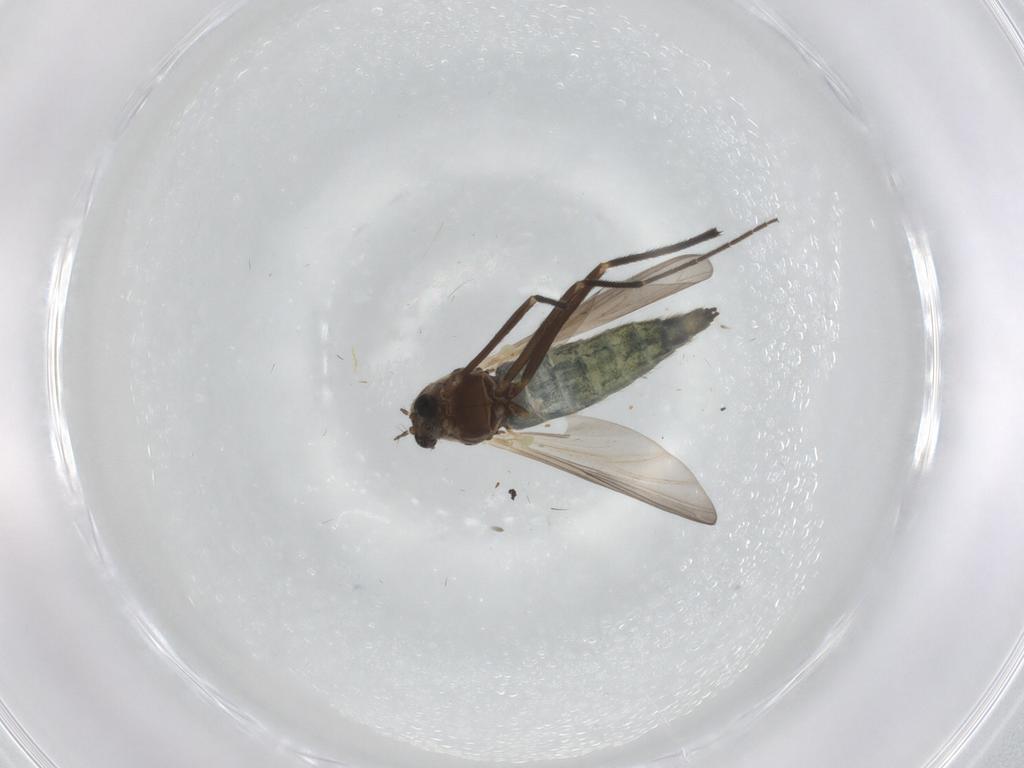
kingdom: Animalia
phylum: Arthropoda
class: Insecta
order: Diptera
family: Chironomidae
